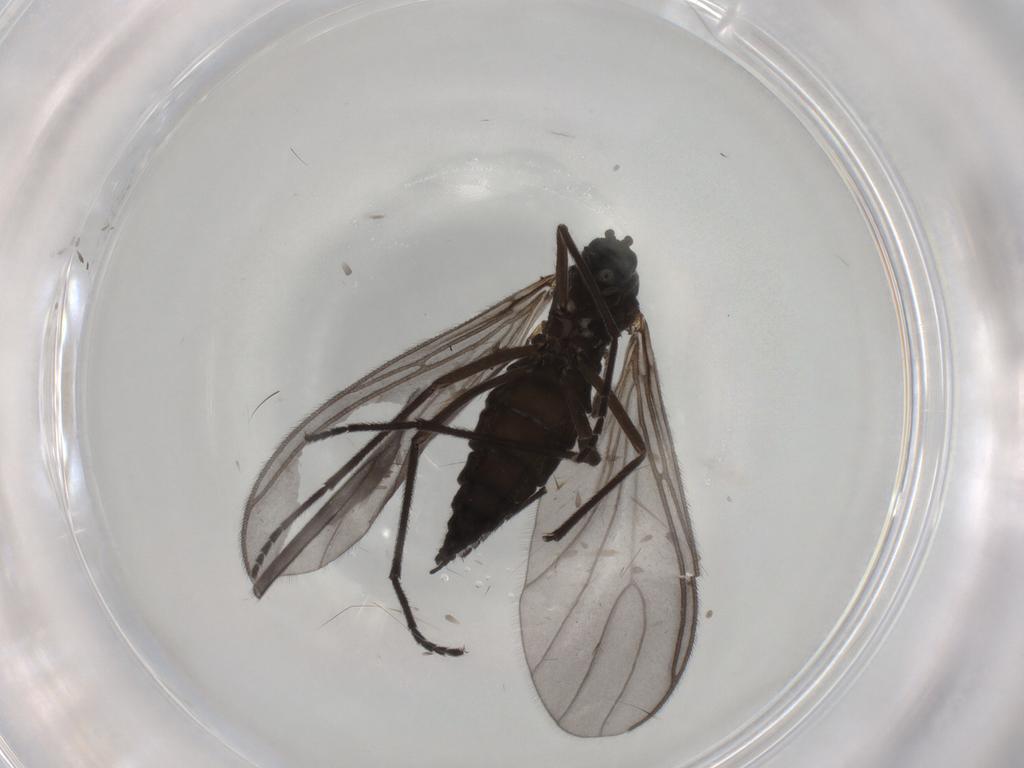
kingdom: Animalia
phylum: Arthropoda
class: Insecta
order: Diptera
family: Sciaridae
